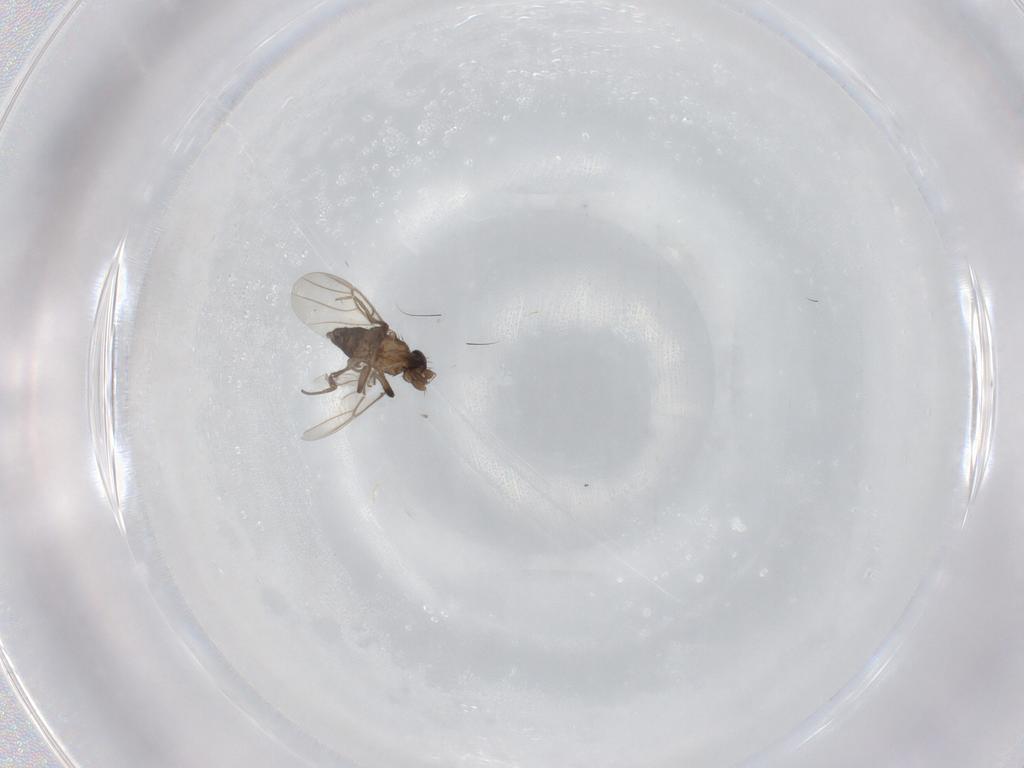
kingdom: Animalia
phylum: Arthropoda
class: Insecta
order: Diptera
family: Phoridae
